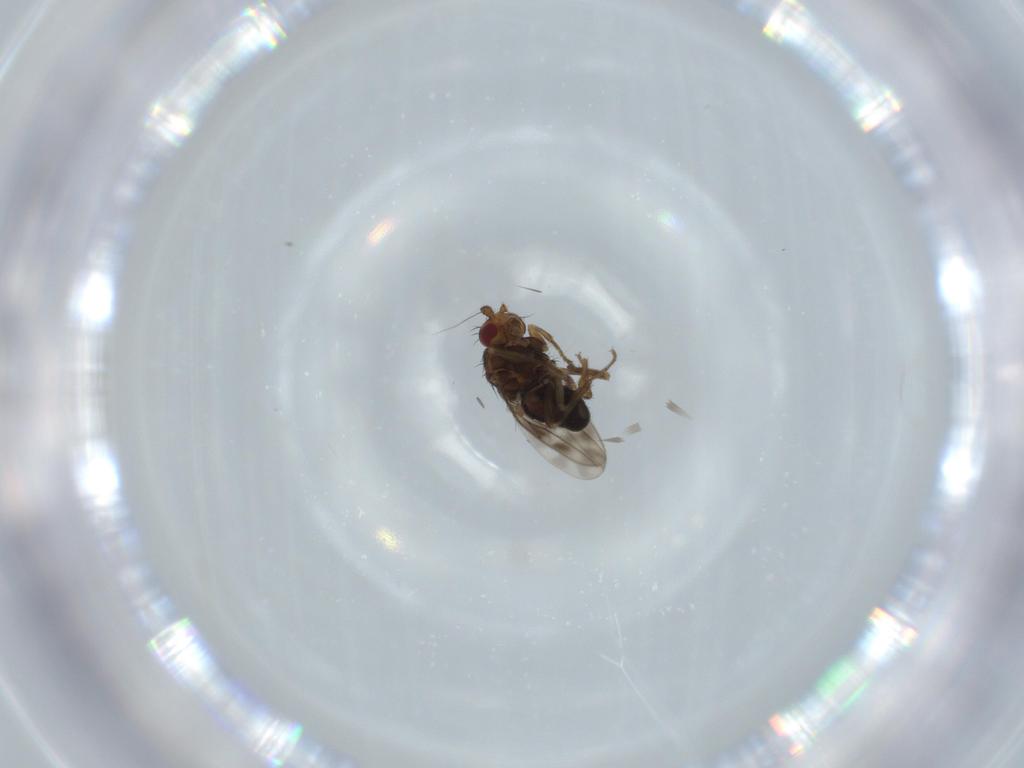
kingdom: Animalia
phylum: Arthropoda
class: Insecta
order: Diptera
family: Sphaeroceridae
